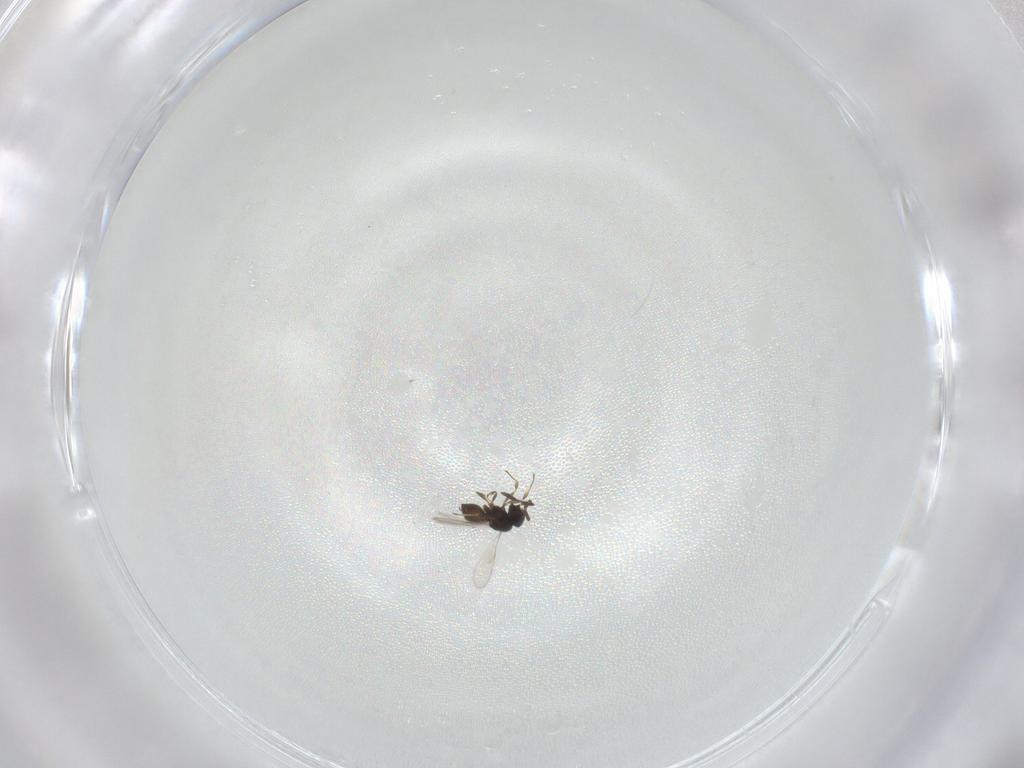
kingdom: Animalia
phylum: Arthropoda
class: Insecta
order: Hymenoptera
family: Scelionidae
